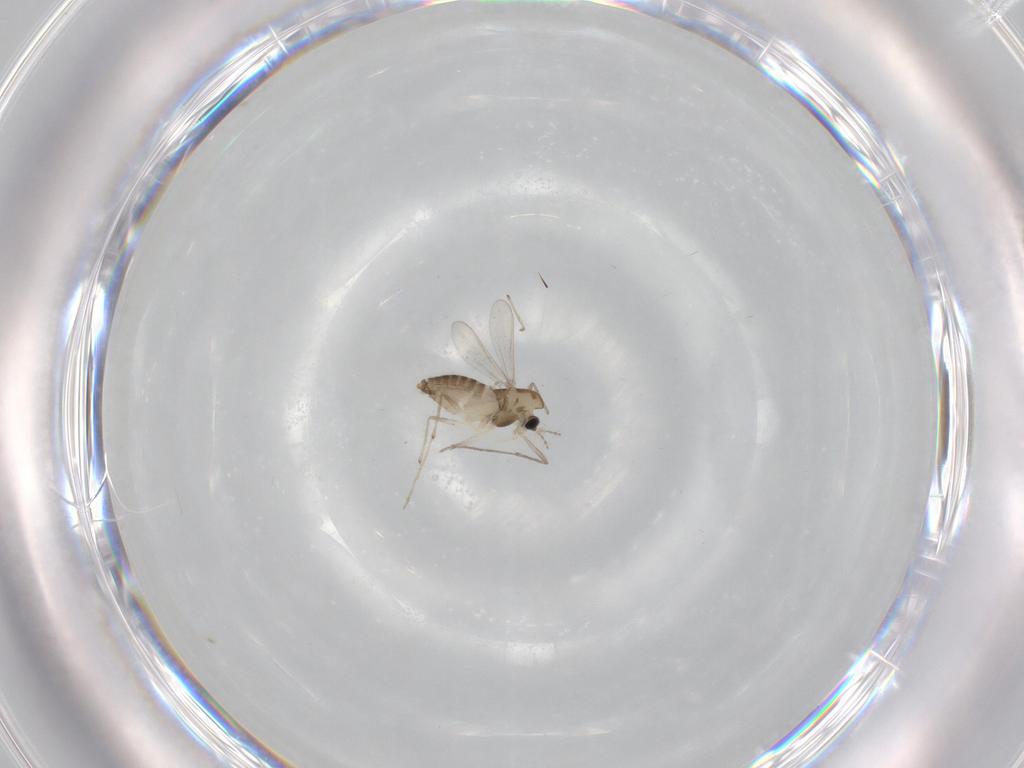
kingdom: Animalia
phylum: Arthropoda
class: Insecta
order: Diptera
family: Chironomidae
